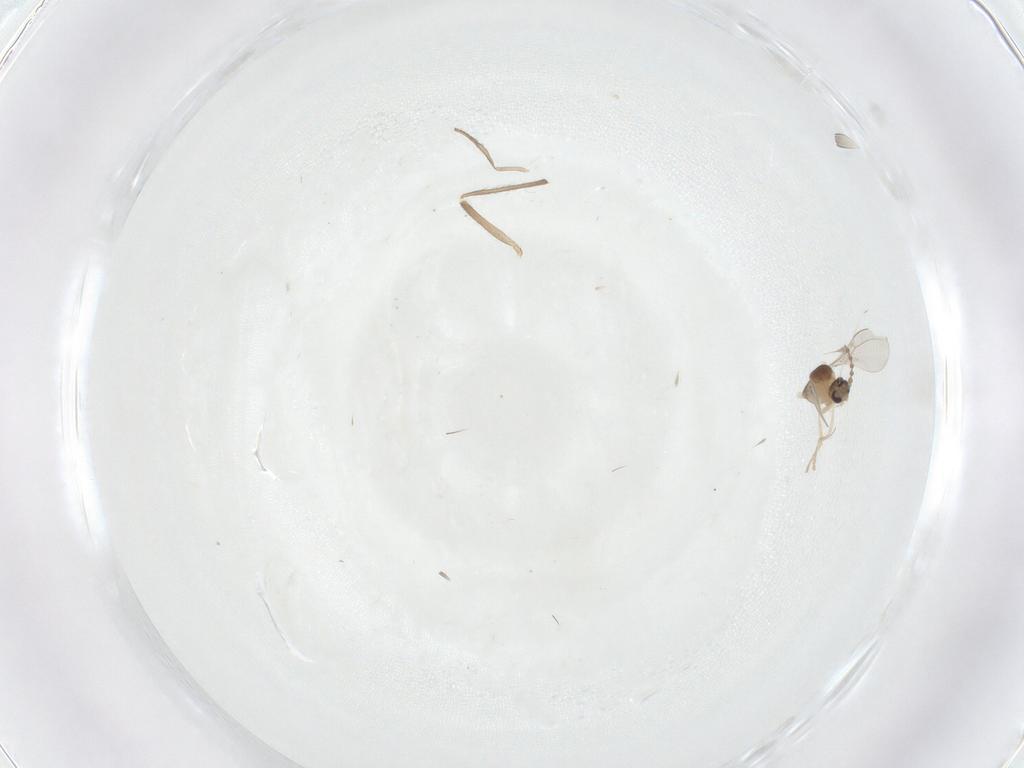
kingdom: Animalia
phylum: Arthropoda
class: Insecta
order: Diptera
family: Cecidomyiidae
